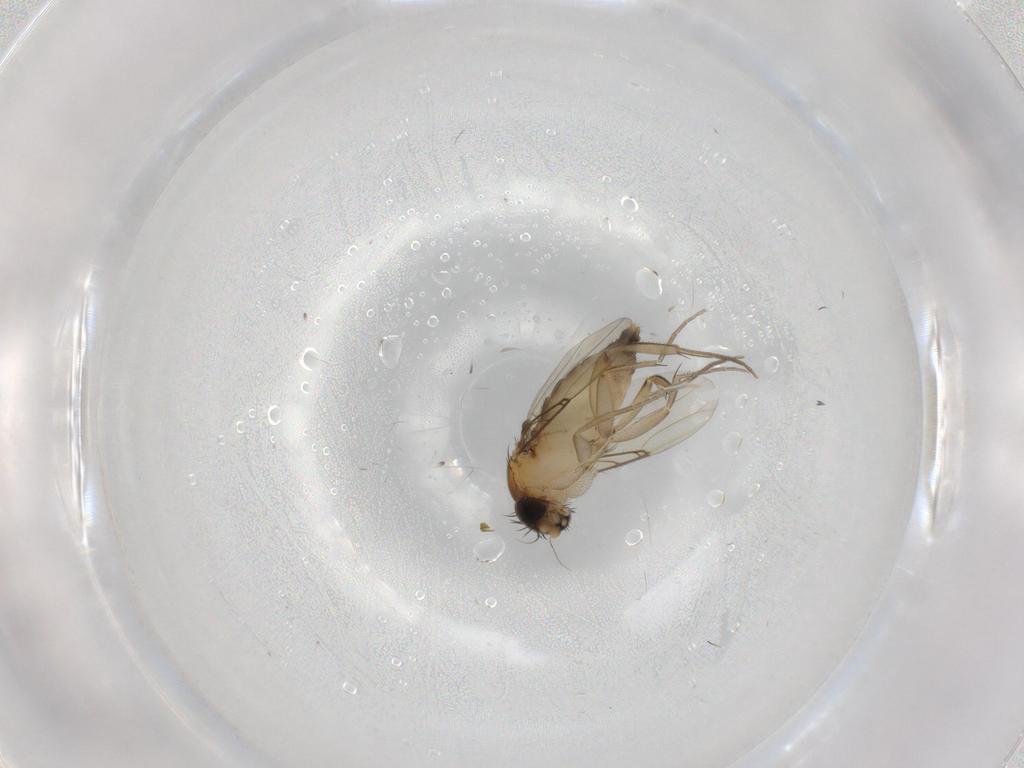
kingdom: Animalia
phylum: Arthropoda
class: Insecta
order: Diptera
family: Phoridae
